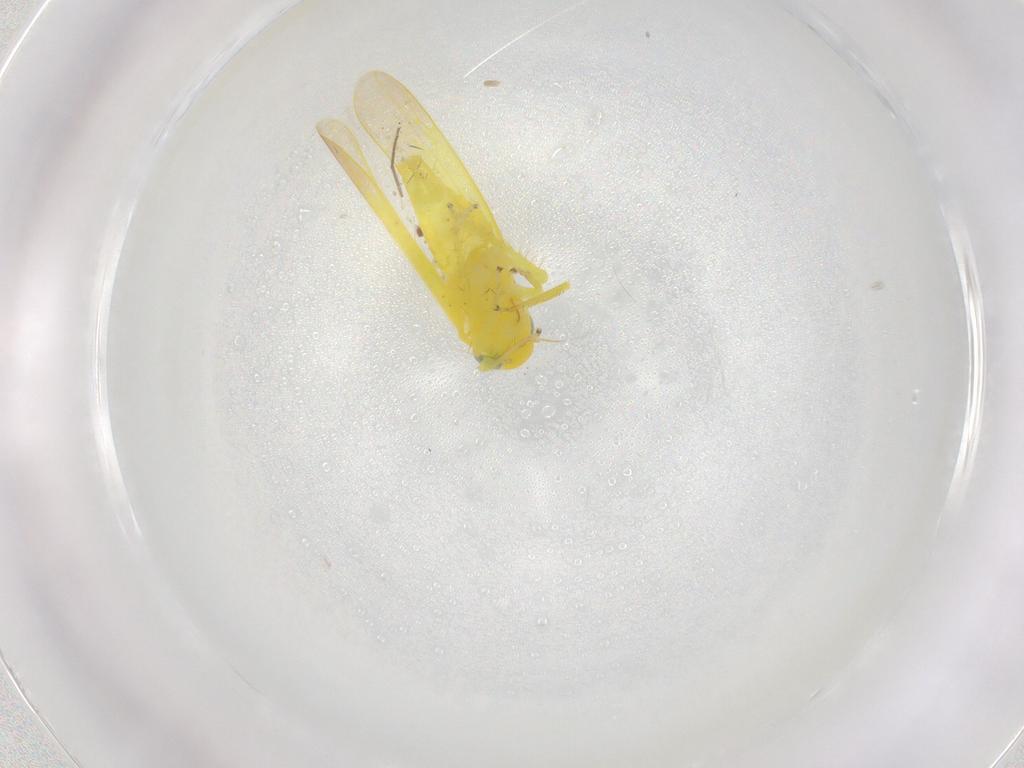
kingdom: Animalia
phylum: Arthropoda
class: Insecta
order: Hemiptera
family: Cicadellidae
